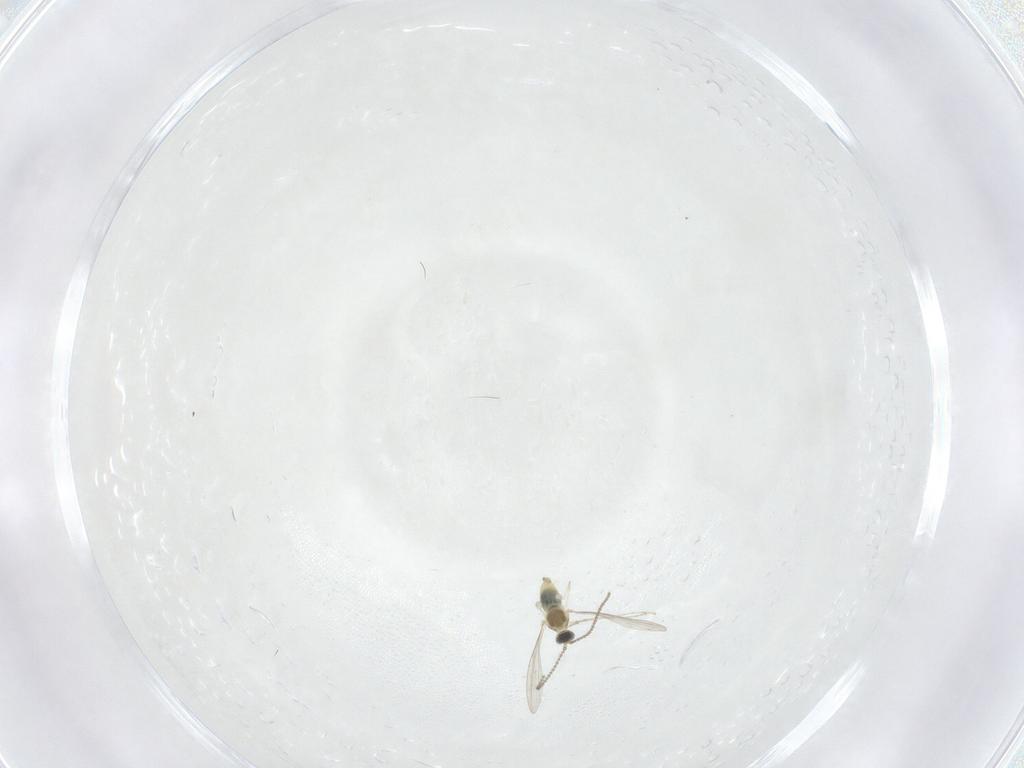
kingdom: Animalia
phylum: Arthropoda
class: Insecta
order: Diptera
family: Cecidomyiidae
